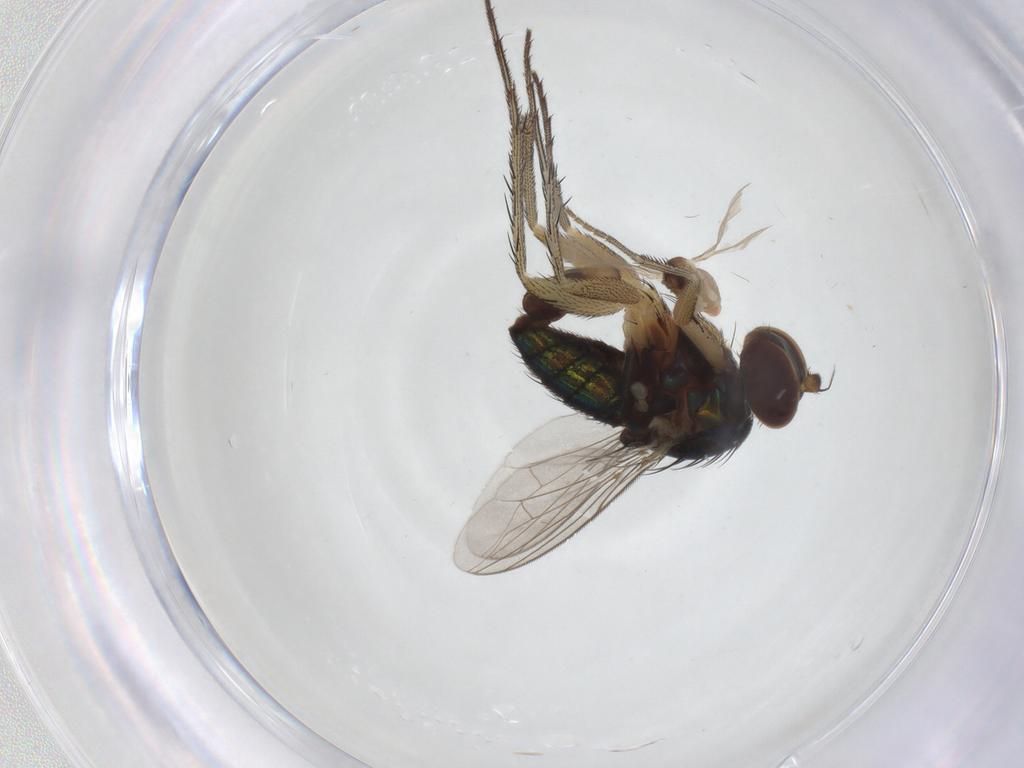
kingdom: Animalia
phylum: Arthropoda
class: Insecta
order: Diptera
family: Dolichopodidae
